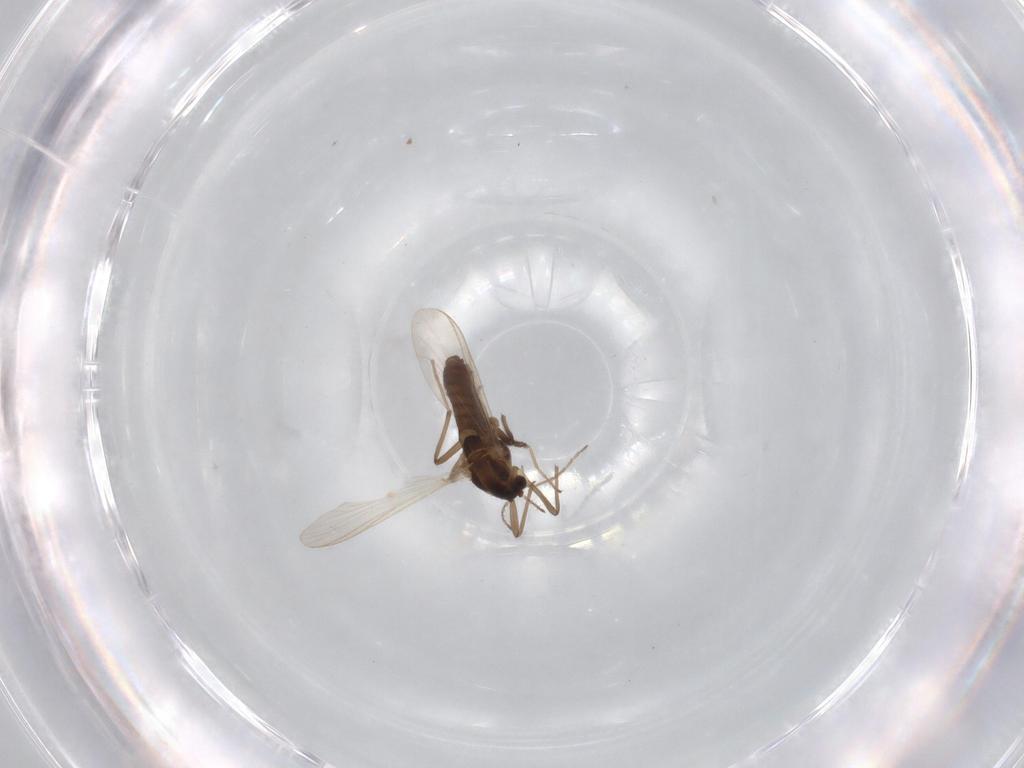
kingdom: Animalia
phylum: Arthropoda
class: Insecta
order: Diptera
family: Chironomidae
